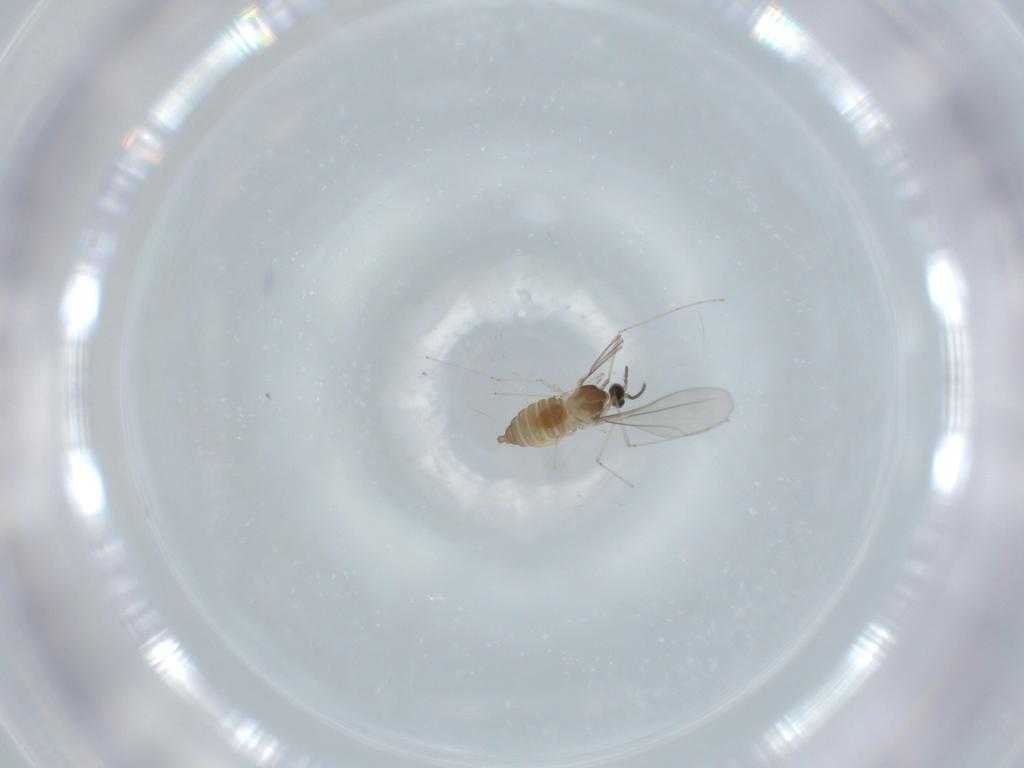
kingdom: Animalia
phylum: Arthropoda
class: Insecta
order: Diptera
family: Cecidomyiidae
